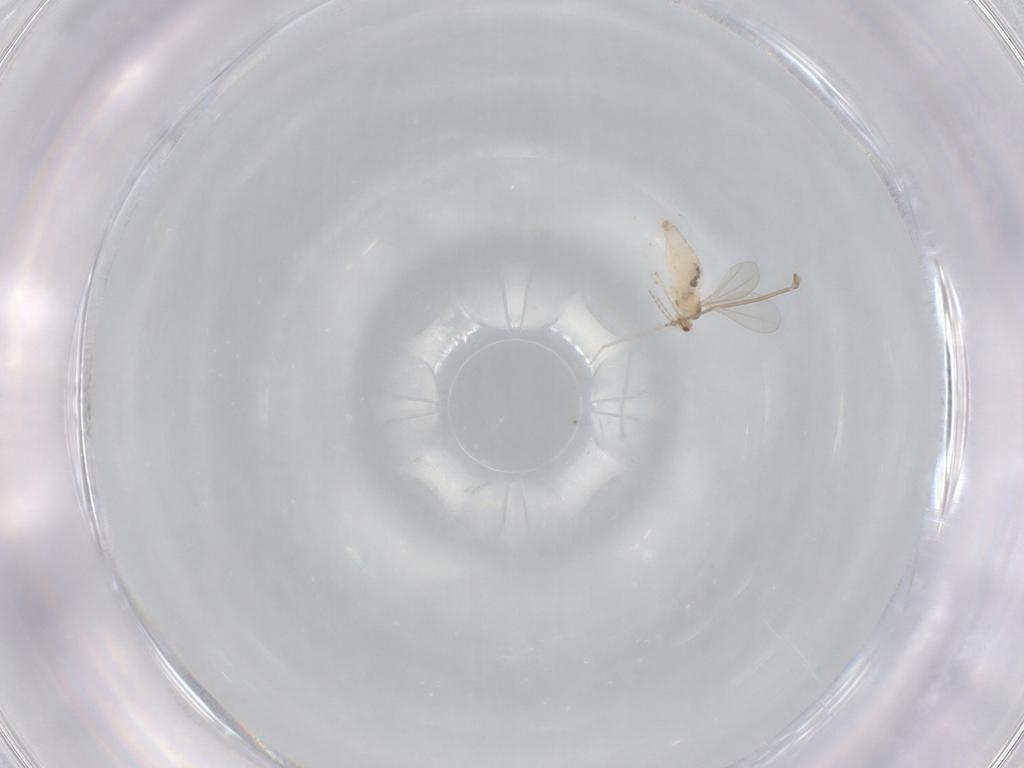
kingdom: Animalia
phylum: Arthropoda
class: Insecta
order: Diptera
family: Cecidomyiidae
